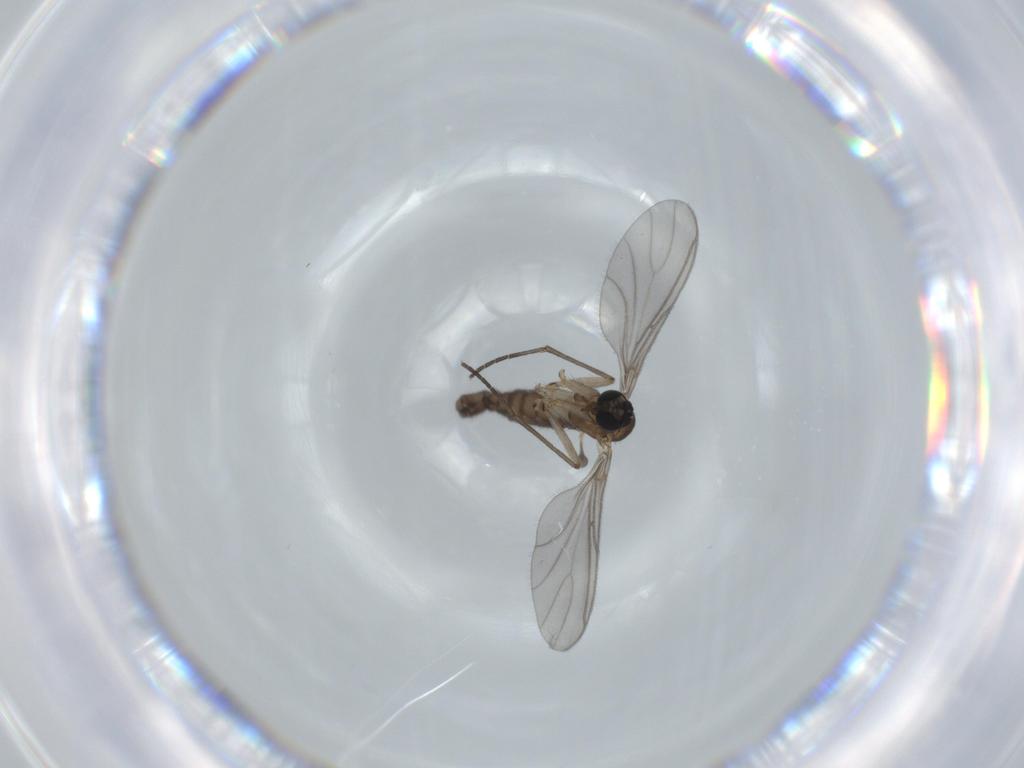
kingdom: Animalia
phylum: Arthropoda
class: Insecta
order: Diptera
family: Sciaridae
